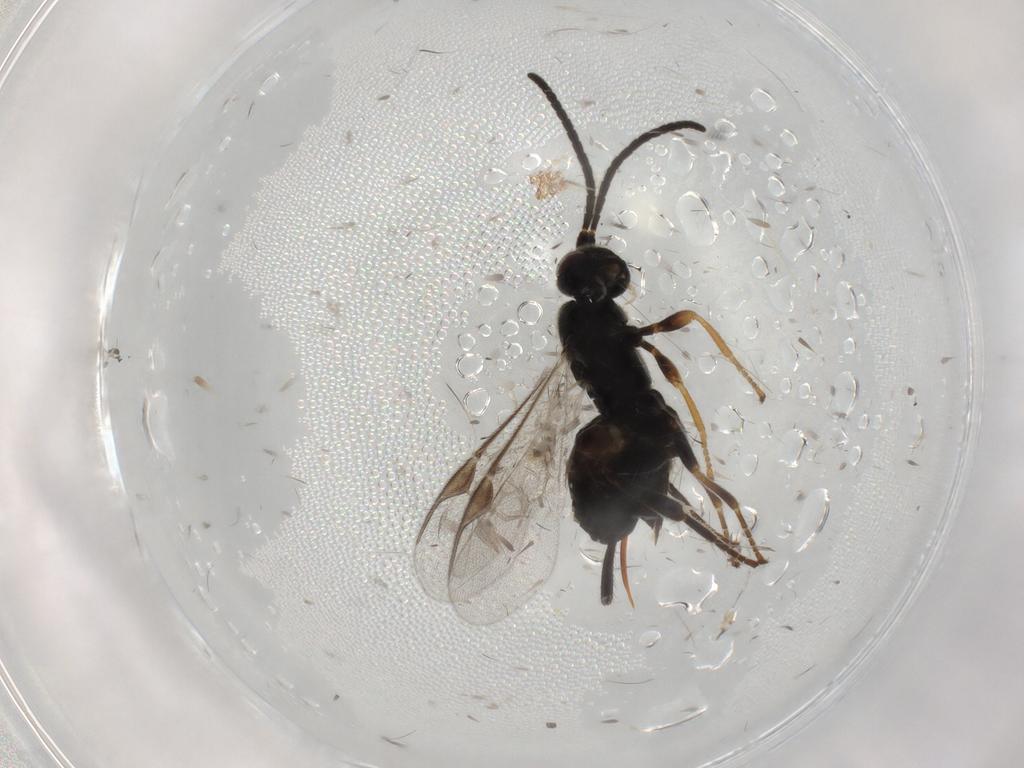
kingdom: Animalia
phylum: Arthropoda
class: Insecta
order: Hymenoptera
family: Braconidae
